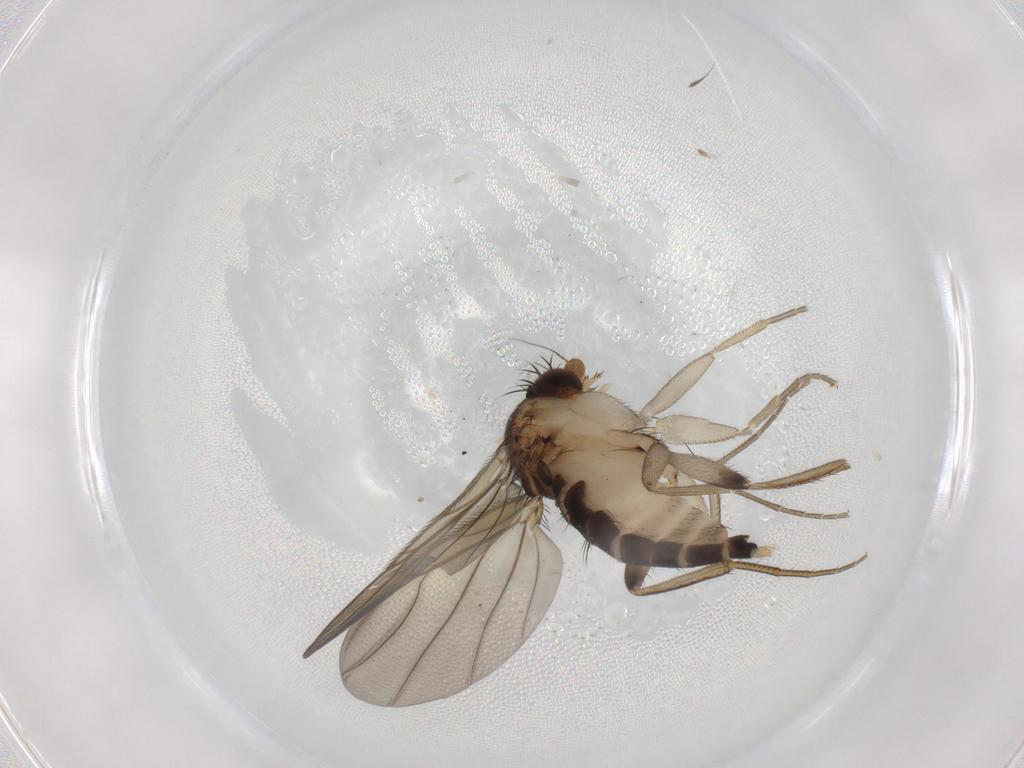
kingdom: Animalia
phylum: Arthropoda
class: Insecta
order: Diptera
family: Phoridae
